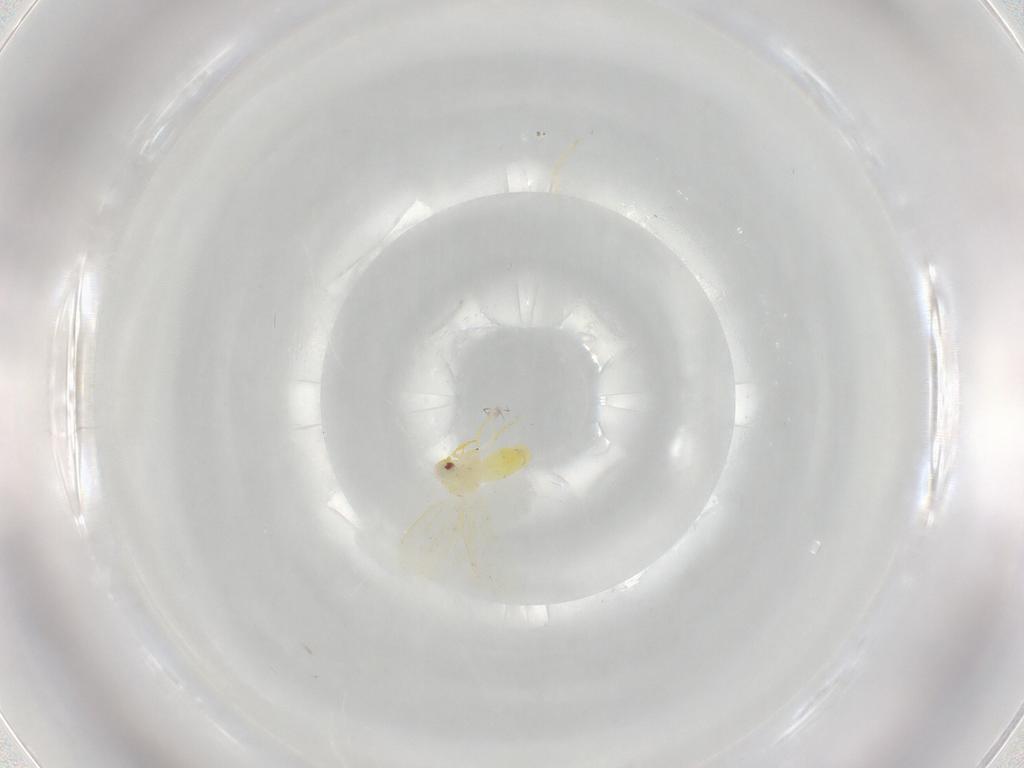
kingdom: Animalia
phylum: Arthropoda
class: Insecta
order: Hemiptera
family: Aleyrodidae
